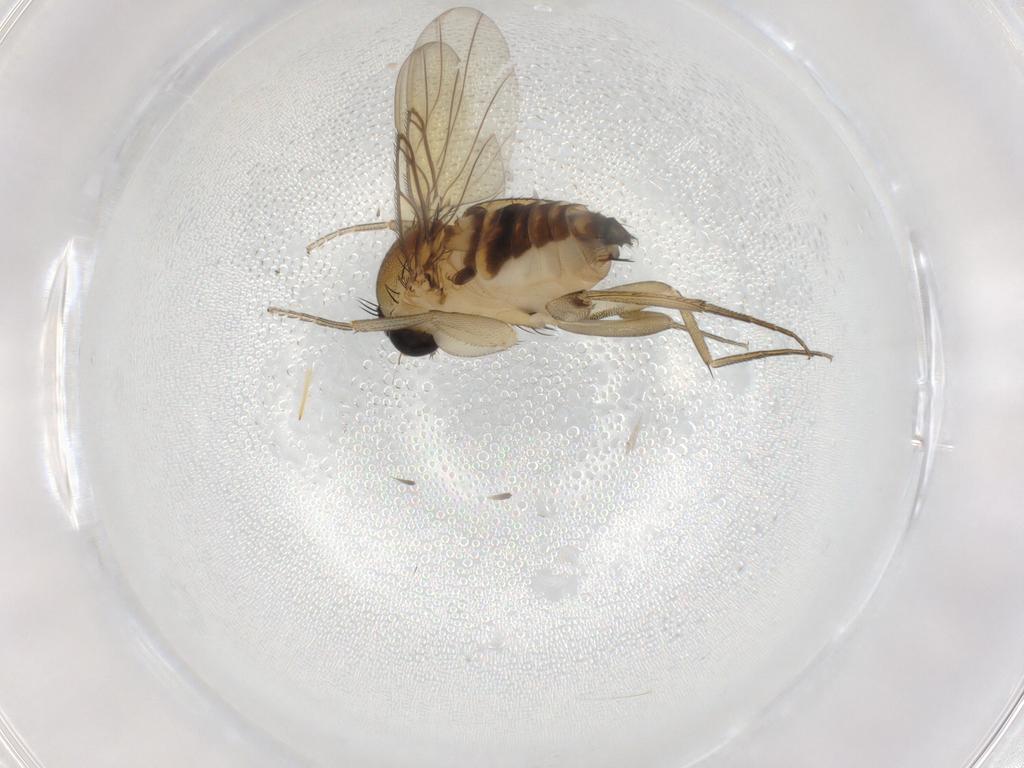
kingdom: Animalia
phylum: Arthropoda
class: Insecta
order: Diptera
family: Phoridae
